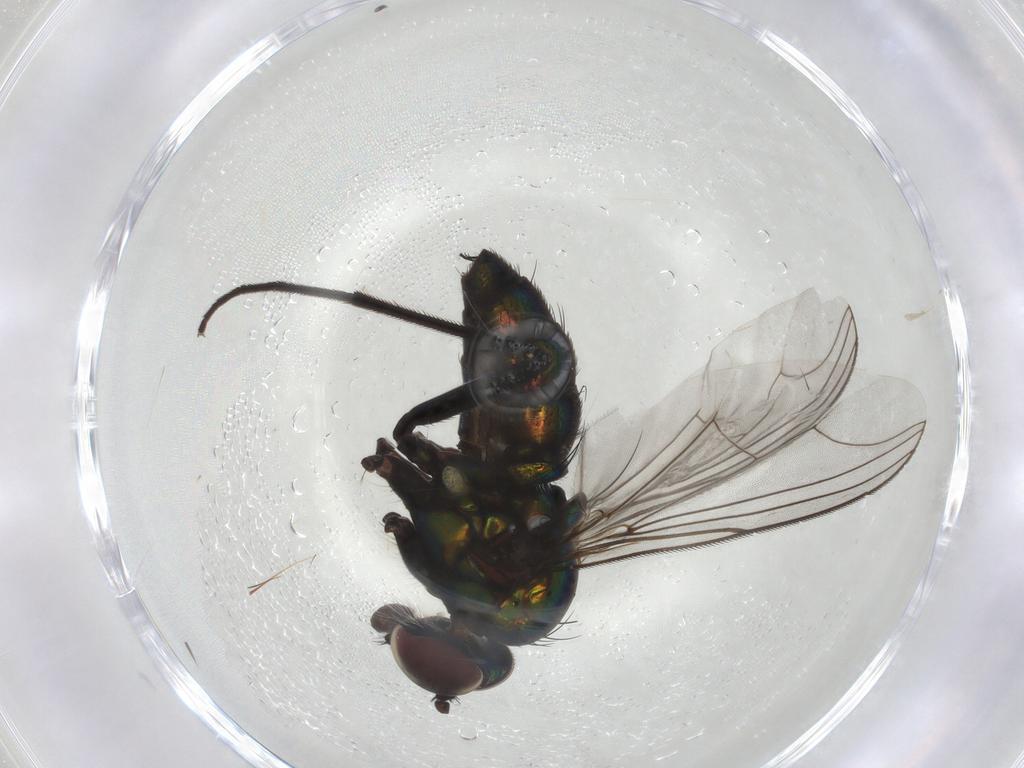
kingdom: Animalia
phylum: Arthropoda
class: Insecta
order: Diptera
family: Dolichopodidae
